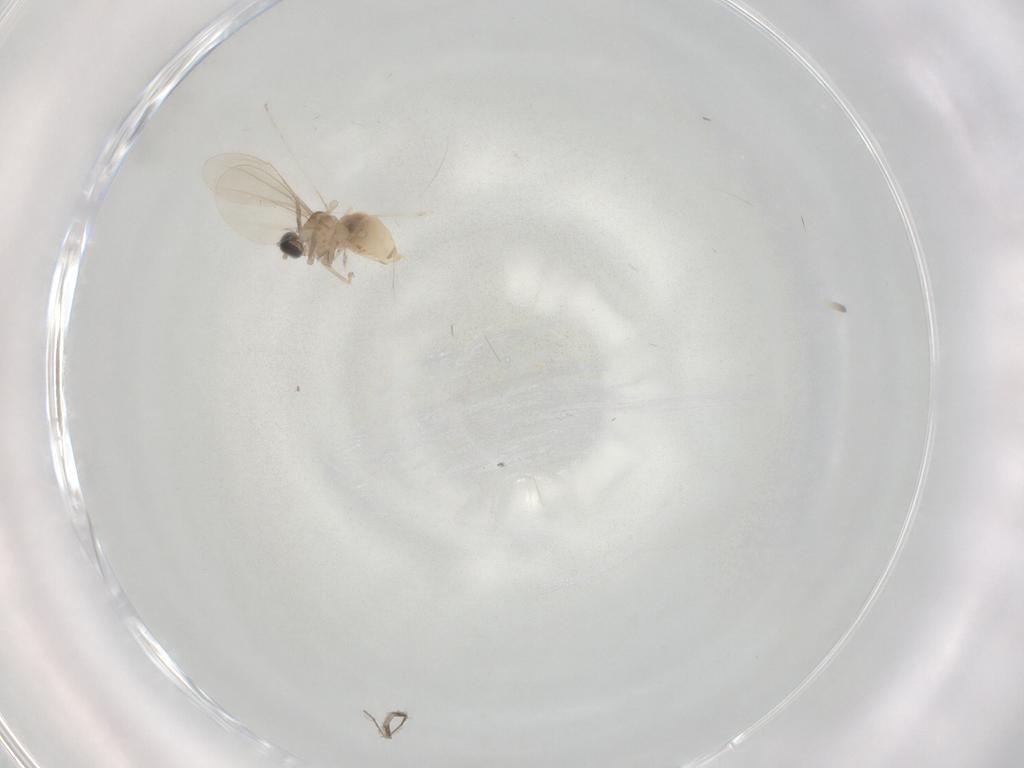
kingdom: Animalia
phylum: Arthropoda
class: Insecta
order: Diptera
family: Cecidomyiidae
